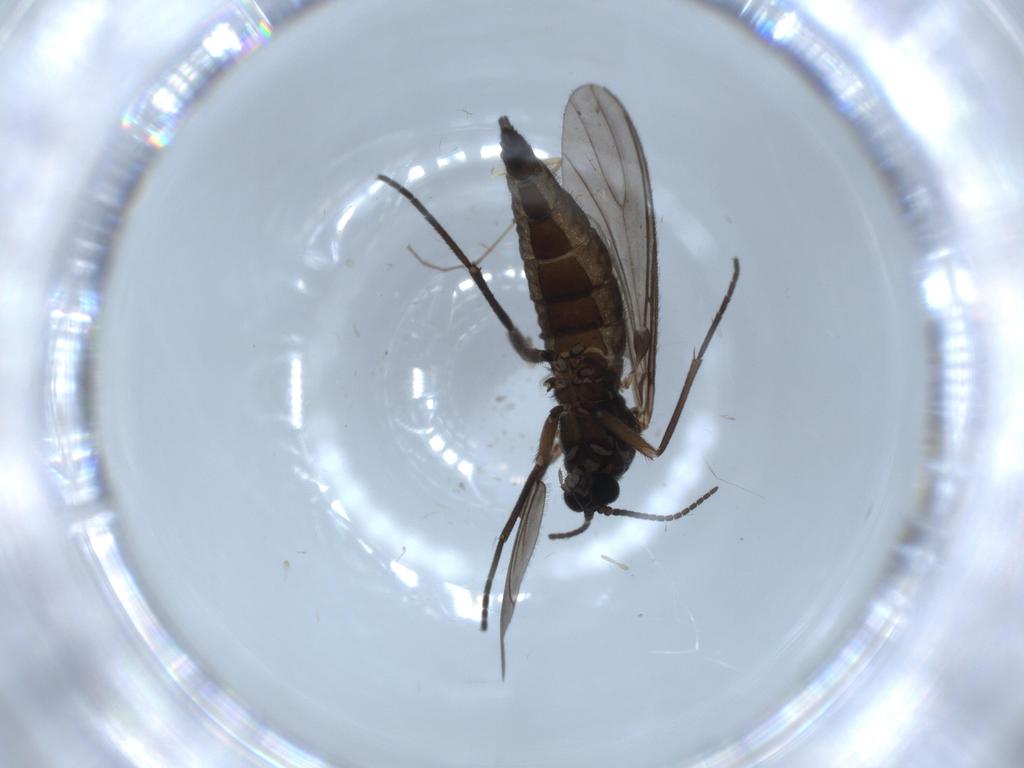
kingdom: Animalia
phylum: Arthropoda
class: Insecta
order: Diptera
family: Sciaridae
